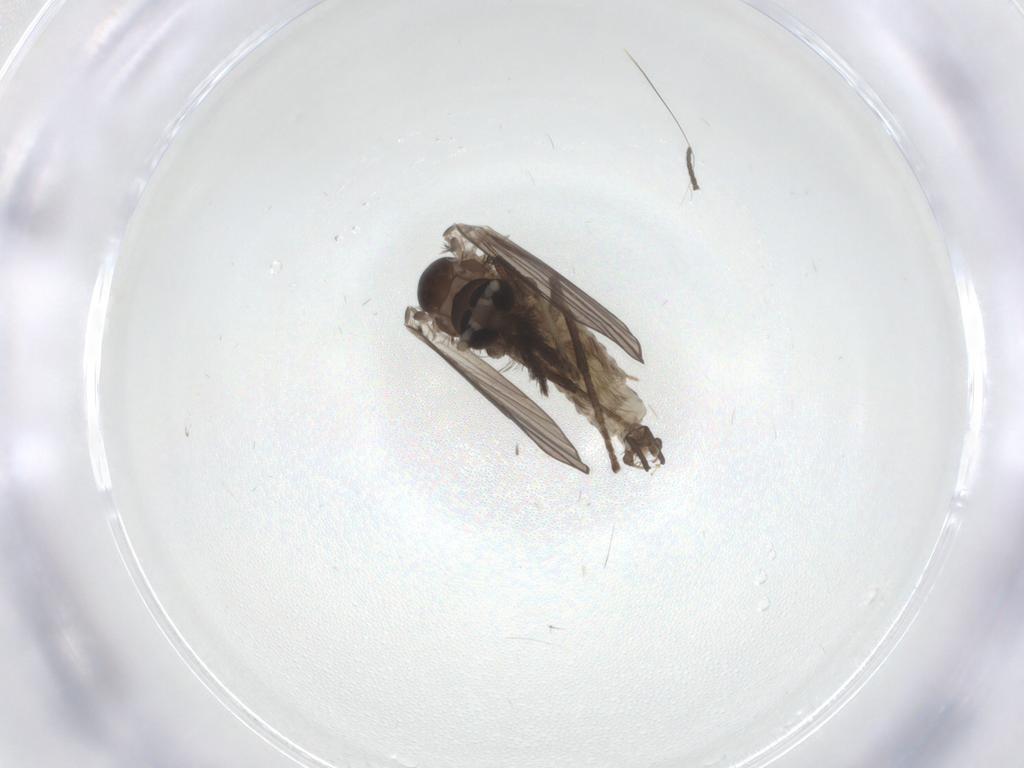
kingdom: Animalia
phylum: Arthropoda
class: Insecta
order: Diptera
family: Psychodidae
